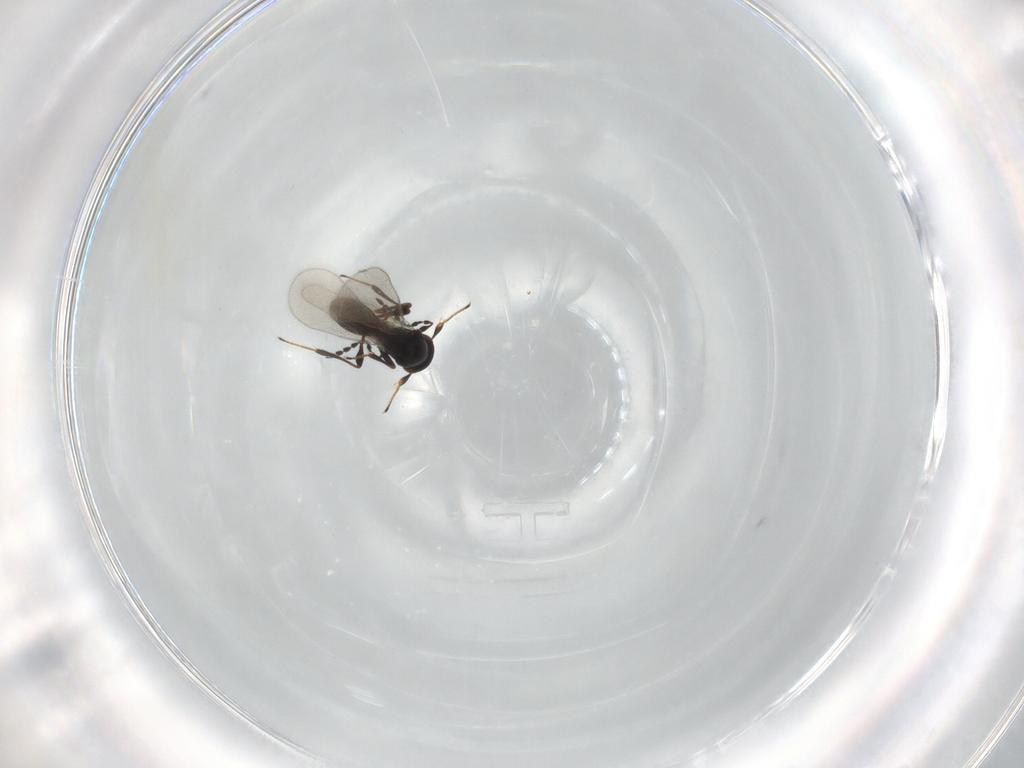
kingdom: Animalia
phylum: Arthropoda
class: Insecta
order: Hymenoptera
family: Platygastridae
